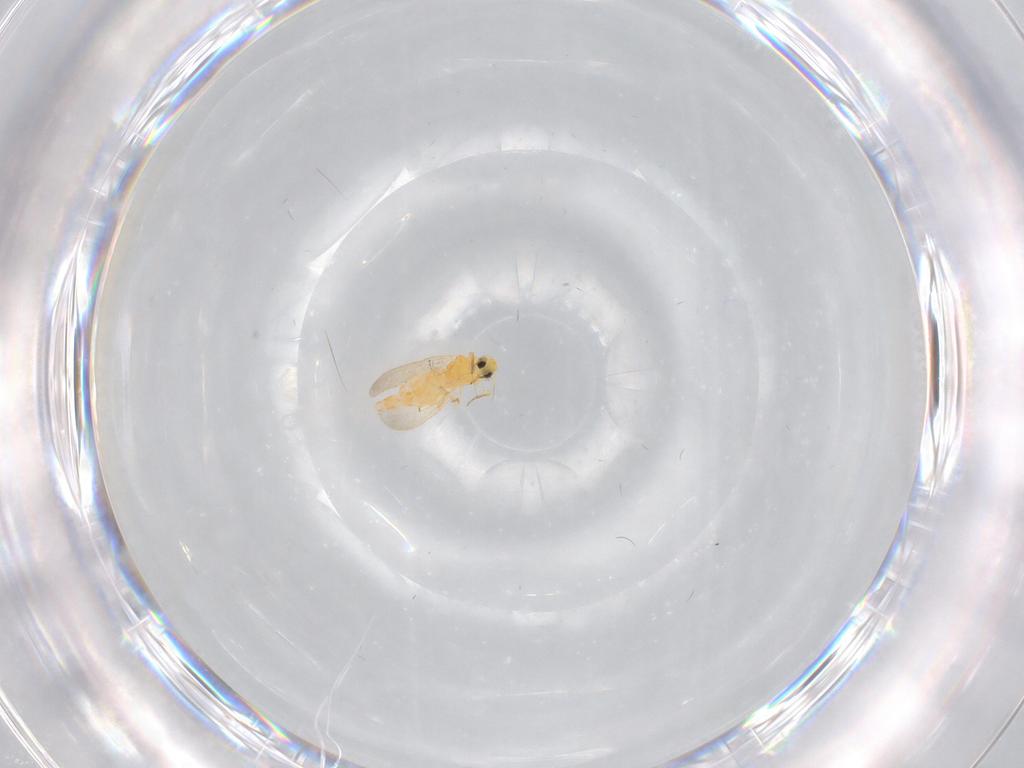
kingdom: Animalia
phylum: Arthropoda
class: Insecta
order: Hemiptera
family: Aleyrodidae
